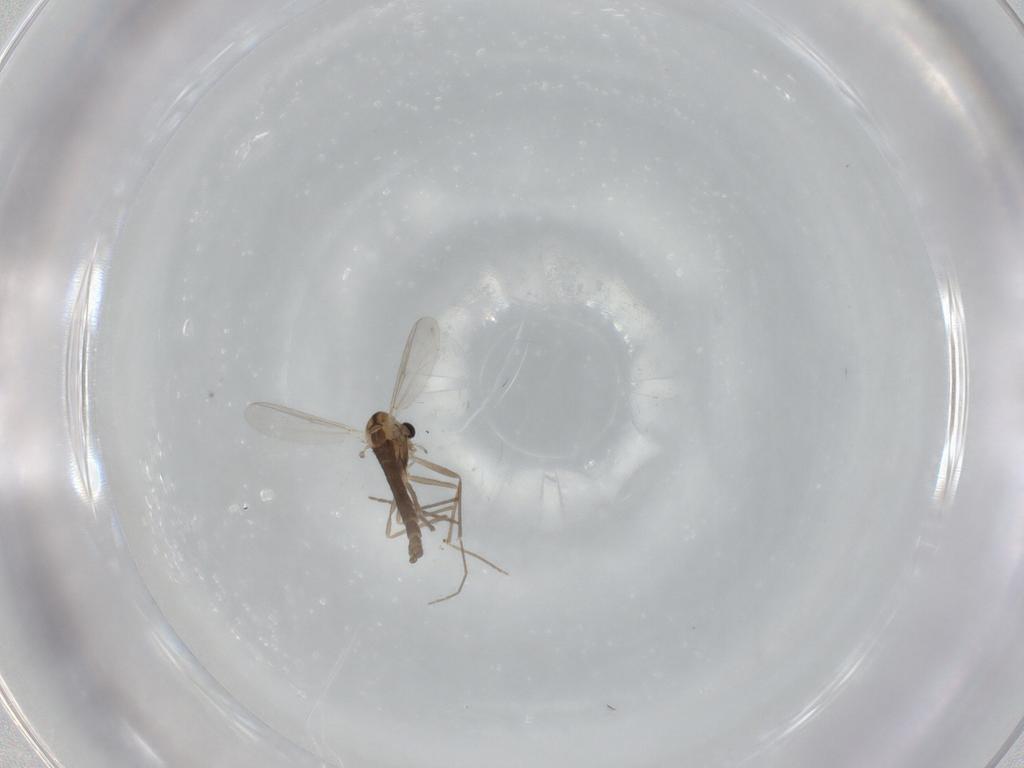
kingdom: Animalia
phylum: Arthropoda
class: Insecta
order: Diptera
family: Chironomidae
